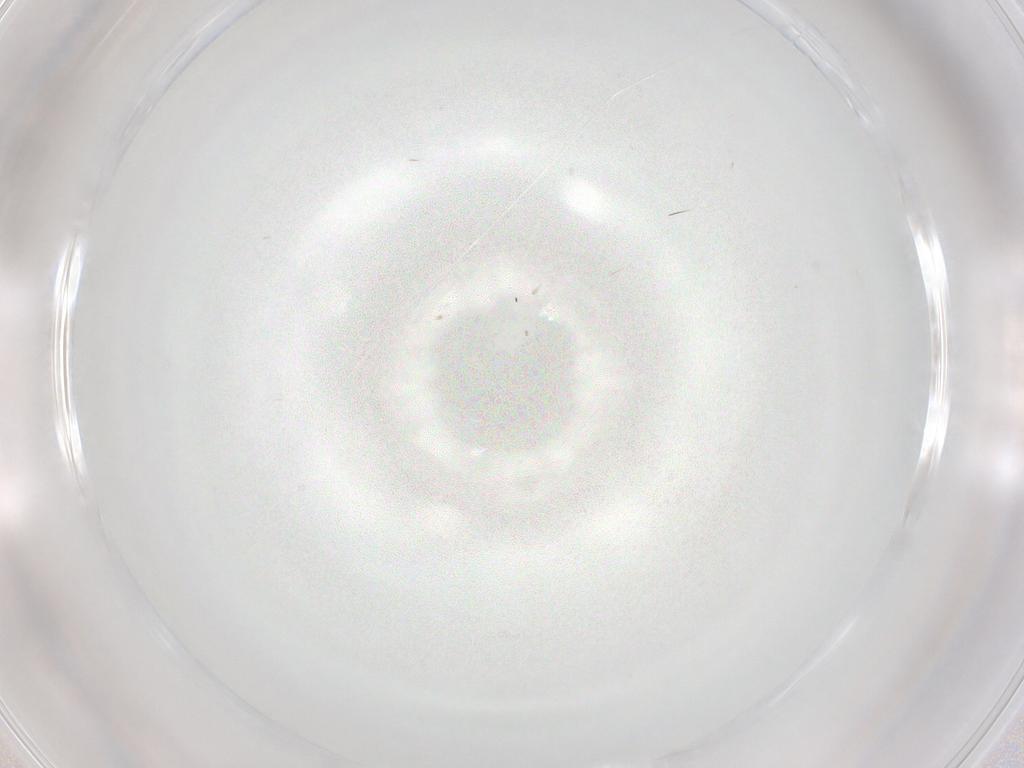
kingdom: Animalia
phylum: Arthropoda
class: Insecta
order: Diptera
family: Cecidomyiidae
